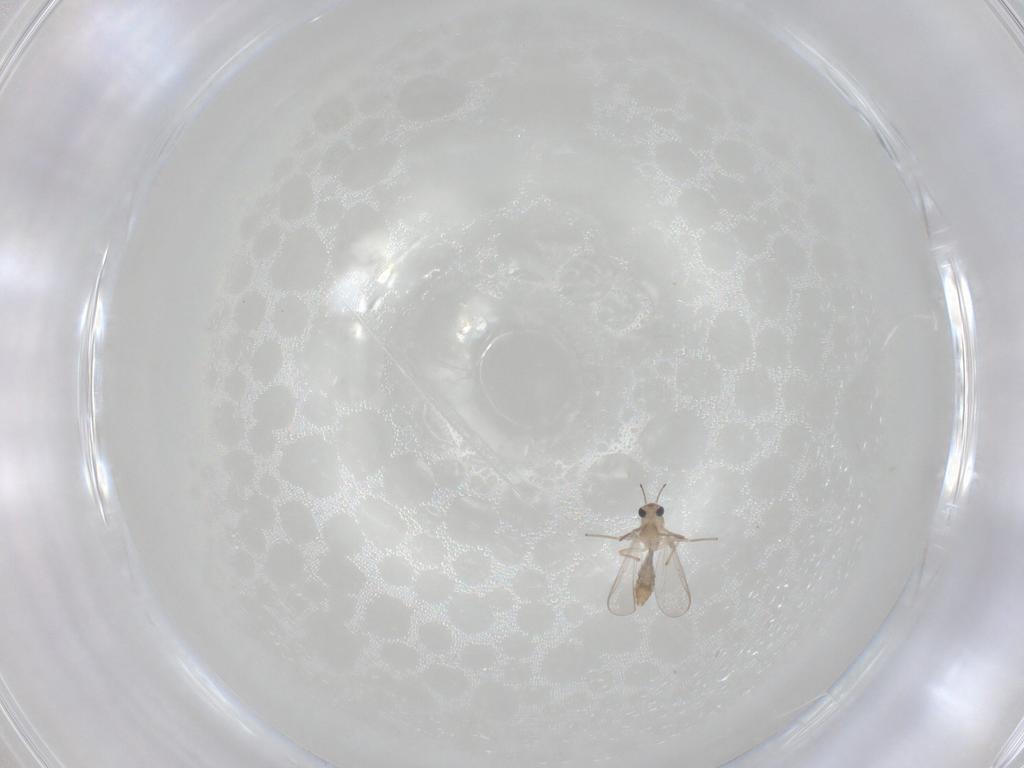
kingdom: Animalia
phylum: Arthropoda
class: Insecta
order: Diptera
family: Chironomidae
